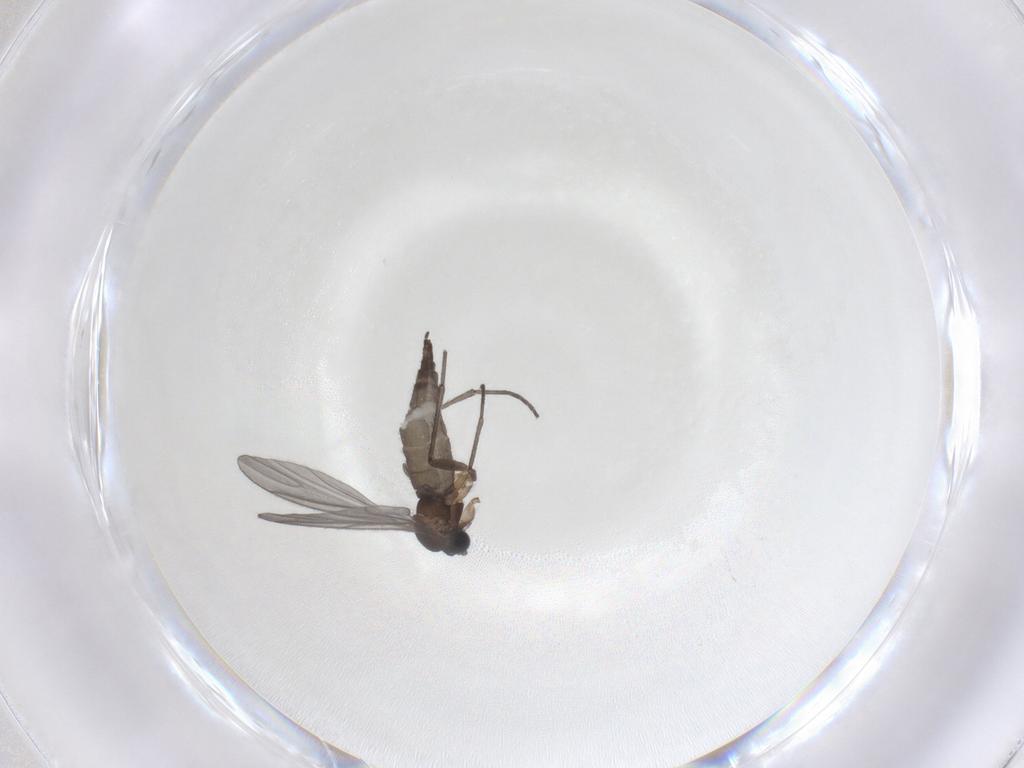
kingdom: Animalia
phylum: Arthropoda
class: Insecta
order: Diptera
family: Sciaridae
